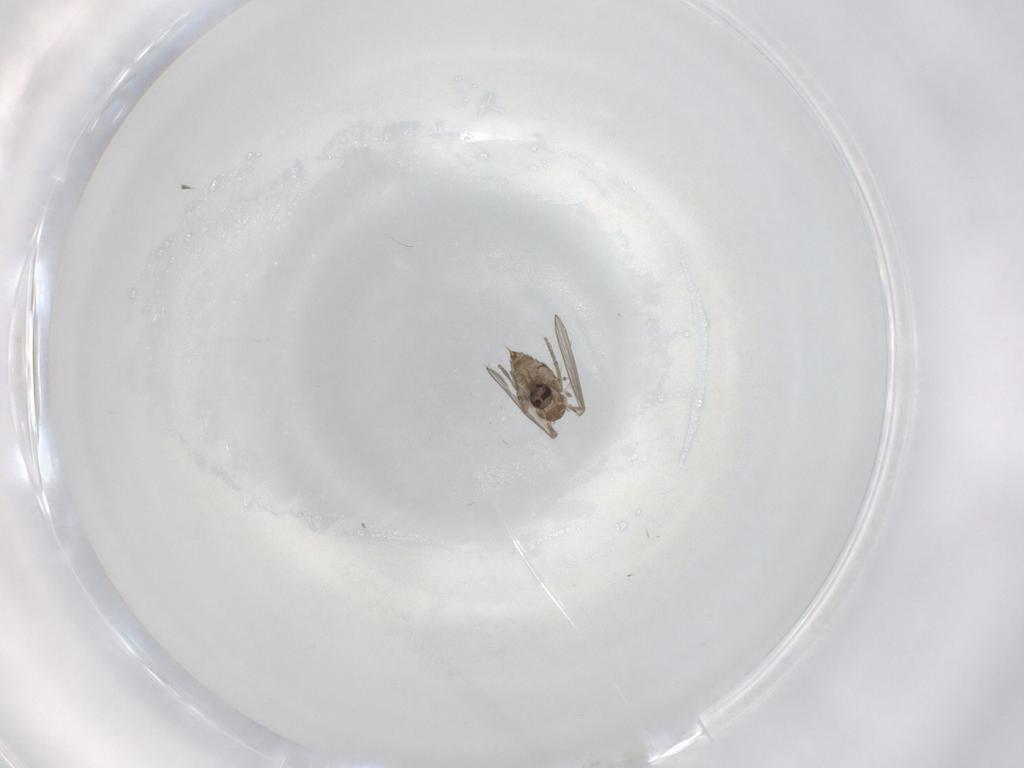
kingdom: Animalia
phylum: Arthropoda
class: Insecta
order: Diptera
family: Psychodidae
